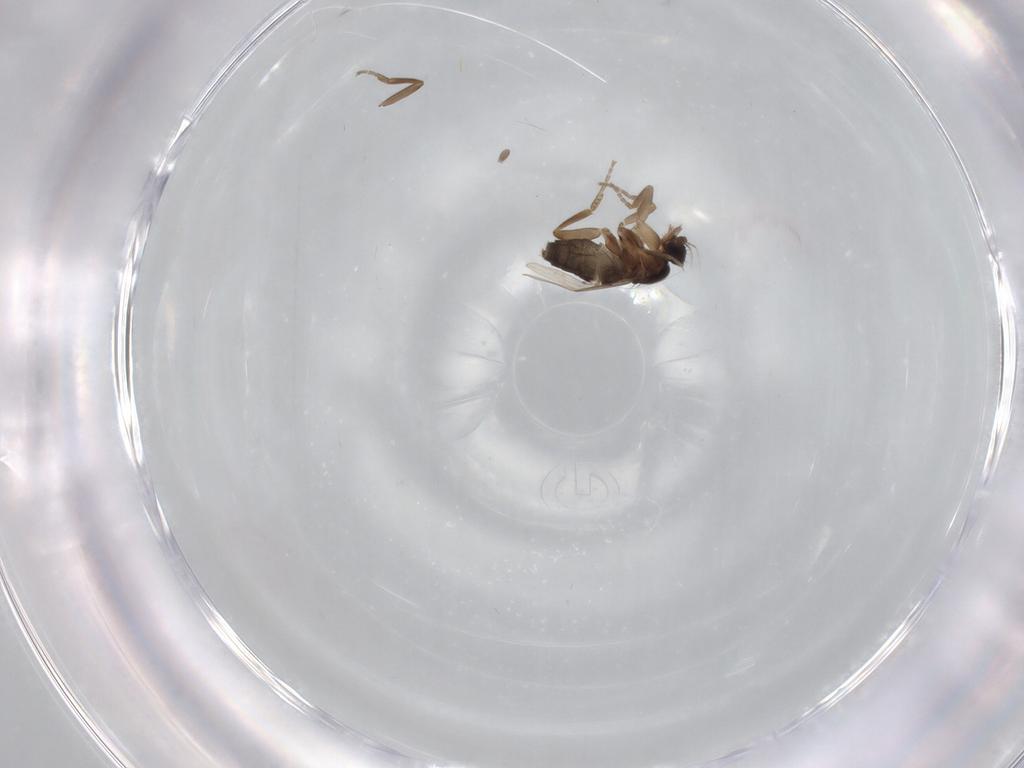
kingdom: Animalia
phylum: Arthropoda
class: Insecta
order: Diptera
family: Phoridae
